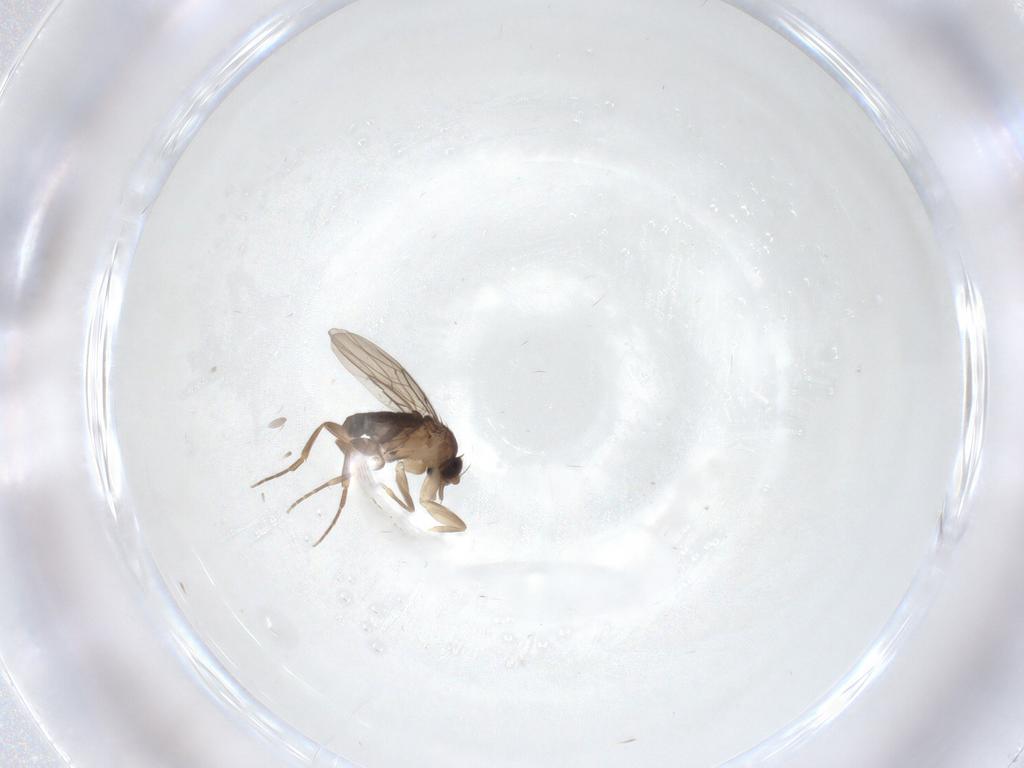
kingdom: Animalia
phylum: Arthropoda
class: Insecta
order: Diptera
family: Phoridae
